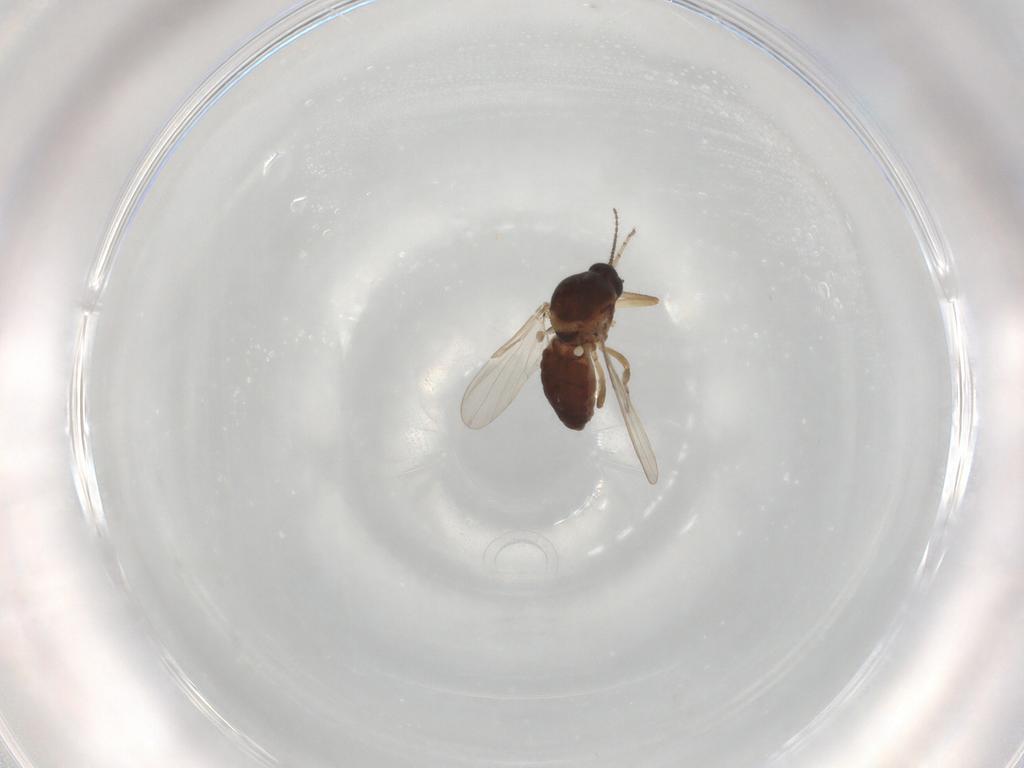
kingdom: Animalia
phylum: Arthropoda
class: Insecta
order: Diptera
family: Ceratopogonidae
